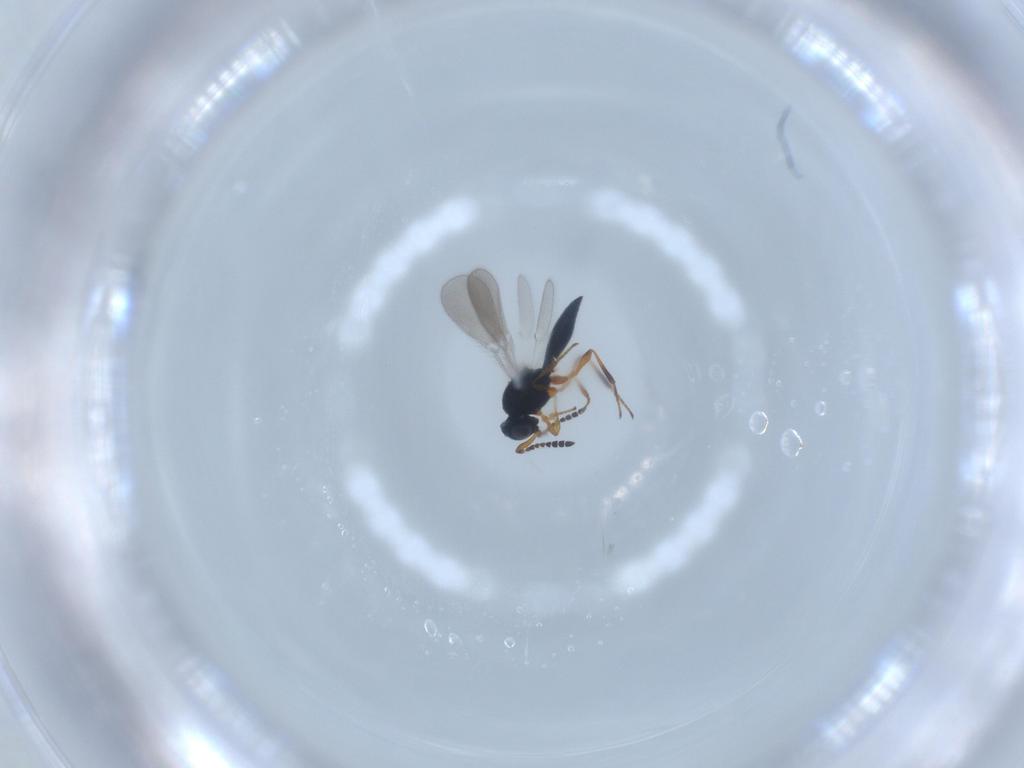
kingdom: Animalia
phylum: Arthropoda
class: Insecta
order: Hymenoptera
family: Platygastridae
